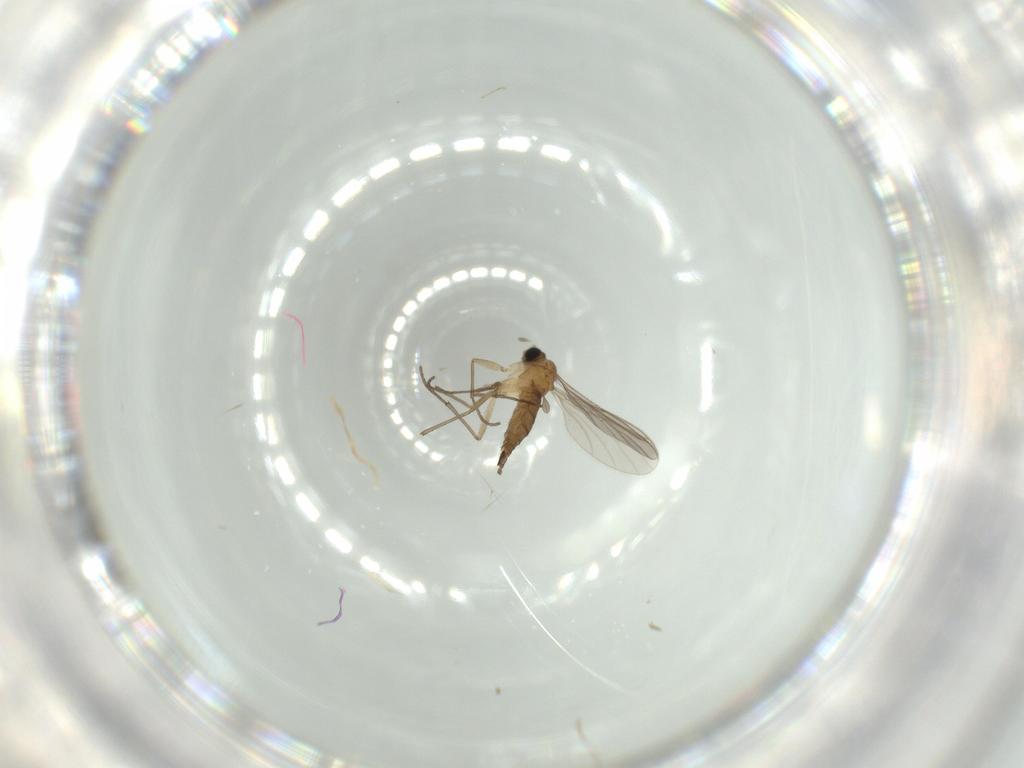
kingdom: Animalia
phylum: Arthropoda
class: Insecta
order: Diptera
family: Sciaridae
